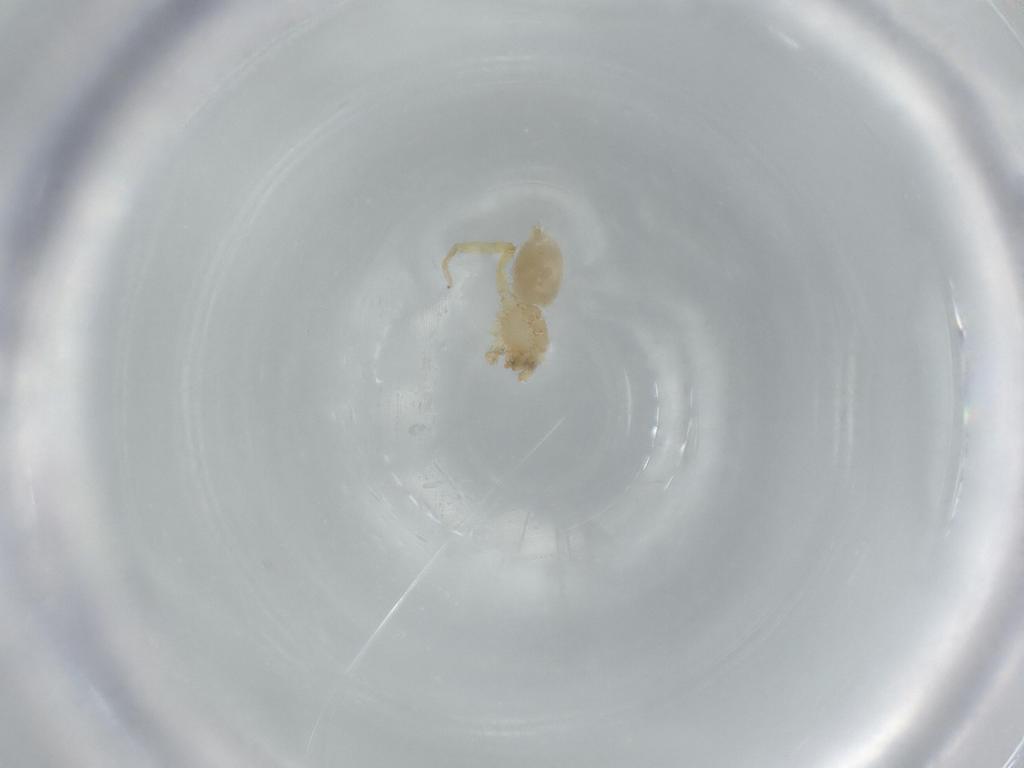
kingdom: Animalia
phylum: Arthropoda
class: Arachnida
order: Araneae
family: Oonopidae
